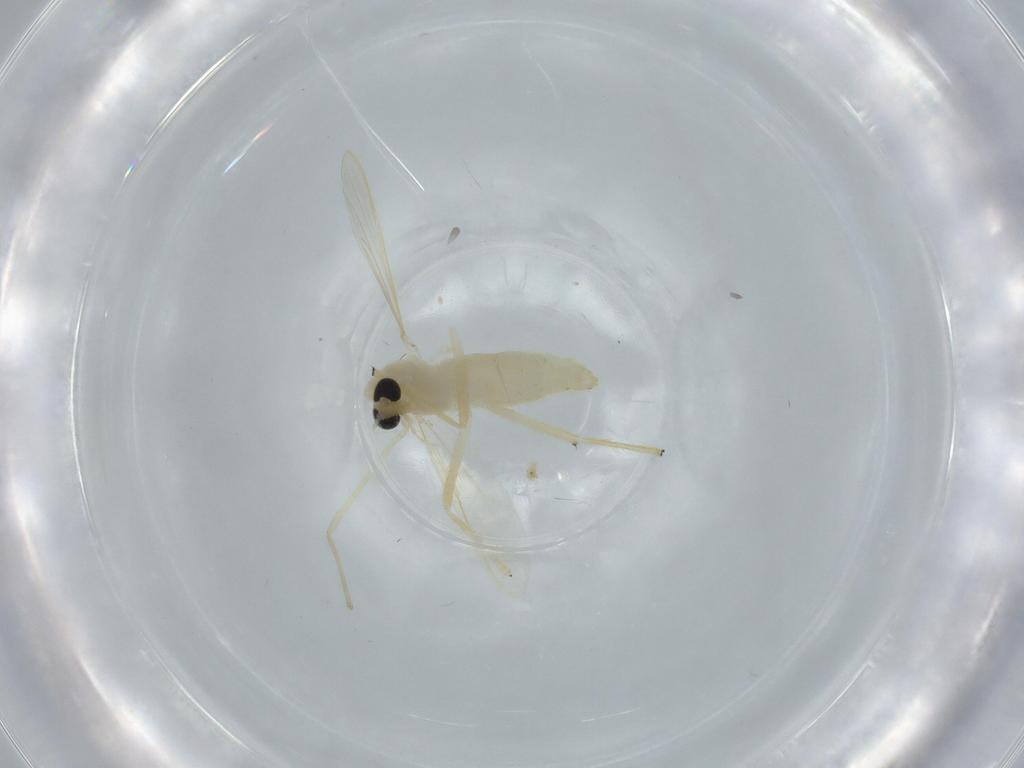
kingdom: Animalia
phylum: Arthropoda
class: Insecta
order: Diptera
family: Chironomidae
